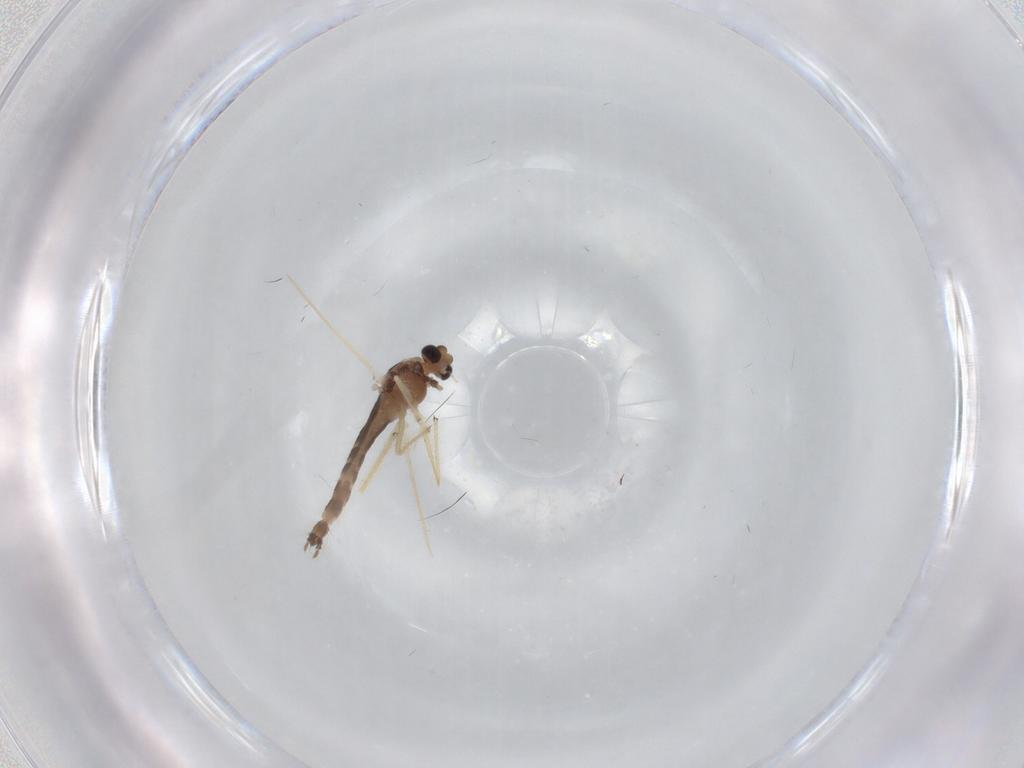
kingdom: Animalia
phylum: Arthropoda
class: Insecta
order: Diptera
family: Chironomidae
